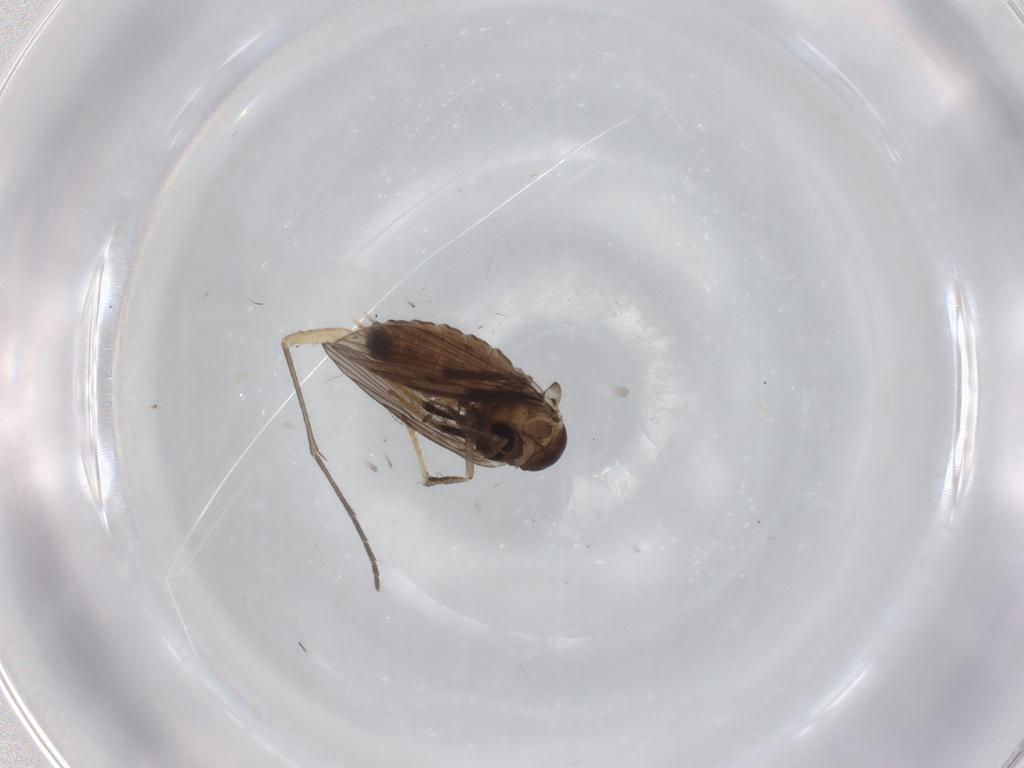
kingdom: Animalia
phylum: Arthropoda
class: Insecta
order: Diptera
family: Psychodidae
